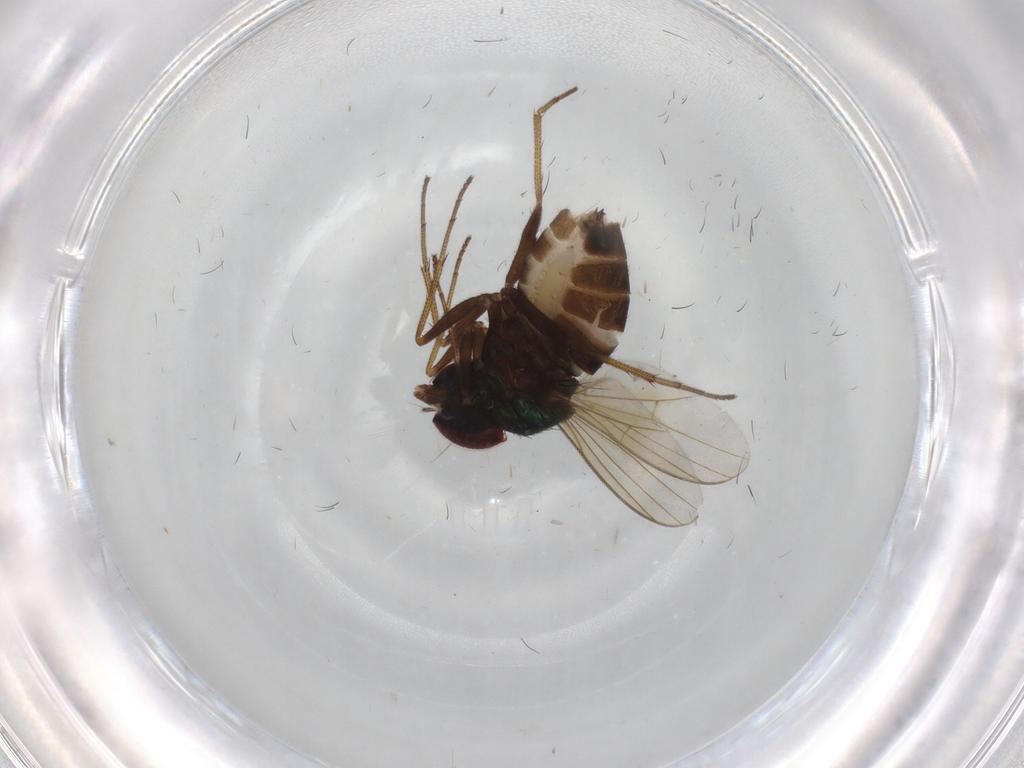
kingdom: Animalia
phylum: Arthropoda
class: Insecta
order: Diptera
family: Dolichopodidae
